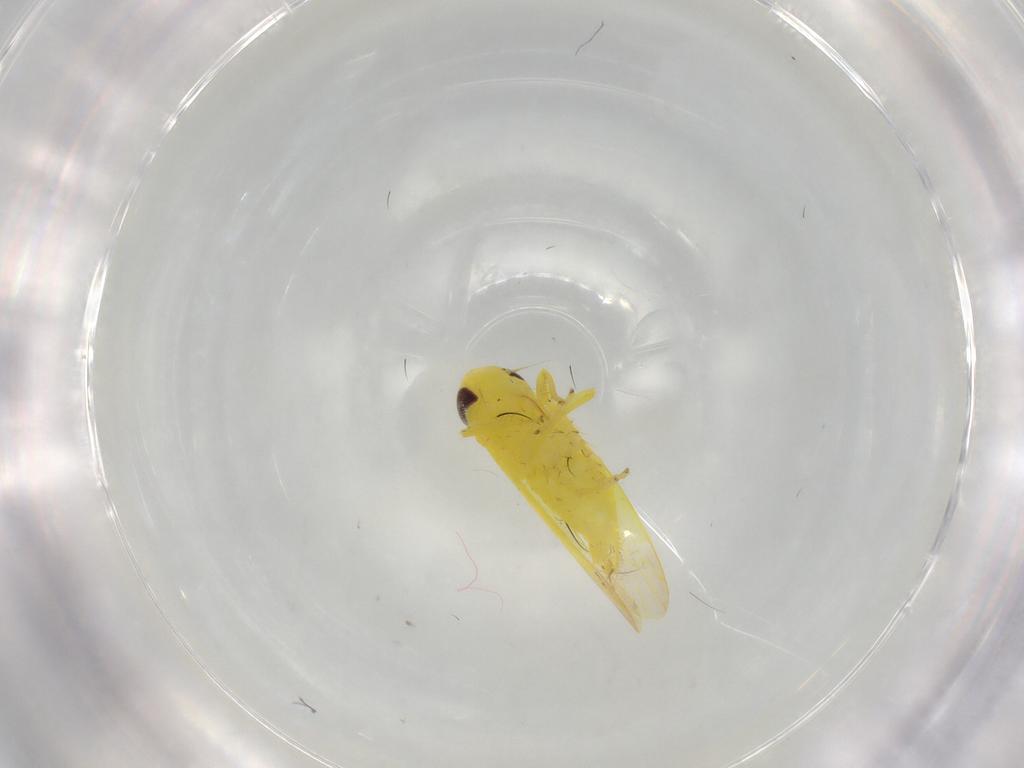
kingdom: Animalia
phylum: Arthropoda
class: Insecta
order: Hemiptera
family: Cicadellidae
